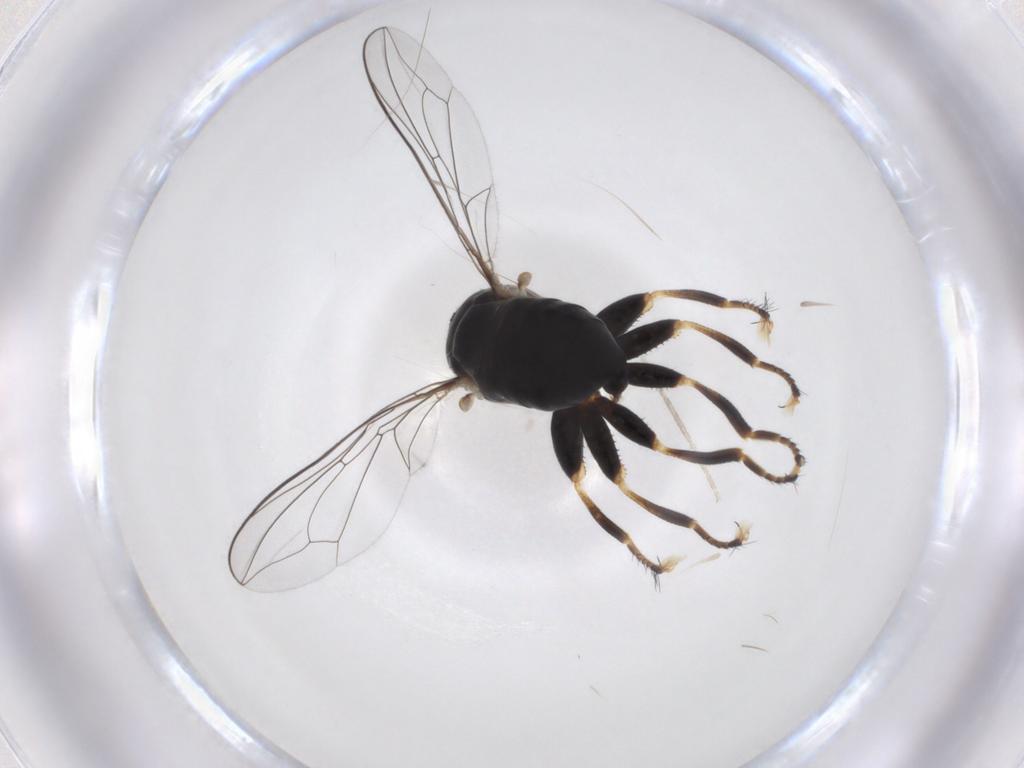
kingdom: Animalia
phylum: Arthropoda
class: Insecta
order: Diptera
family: Pipunculidae
